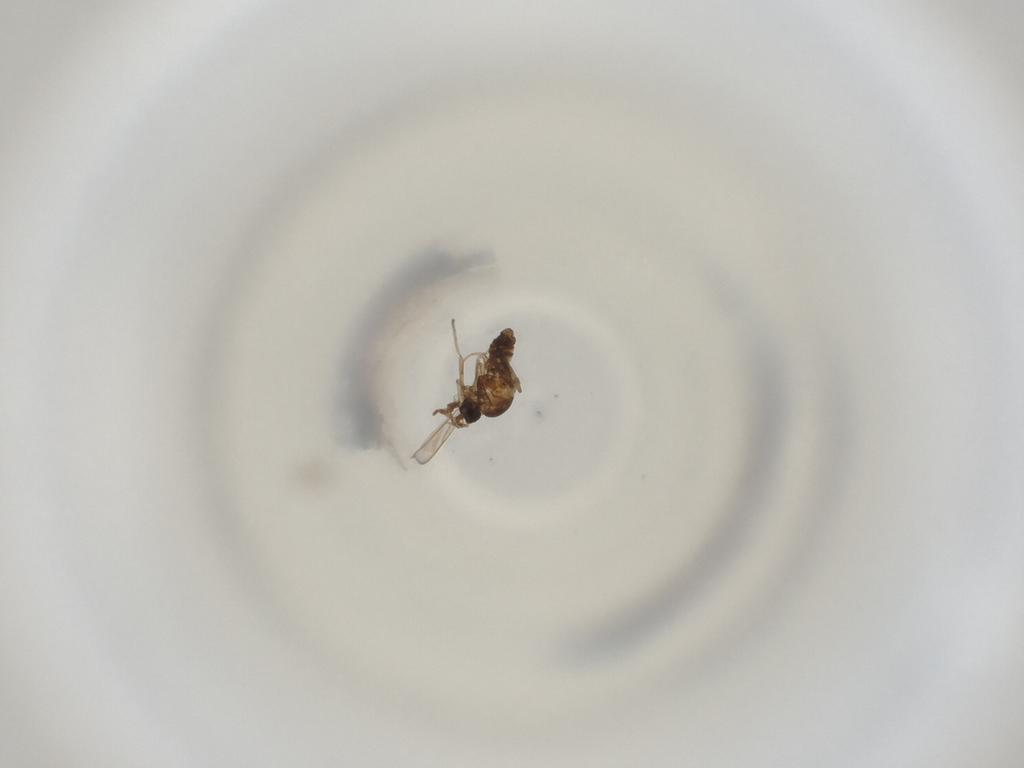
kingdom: Animalia
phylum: Arthropoda
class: Insecta
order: Diptera
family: Cecidomyiidae
